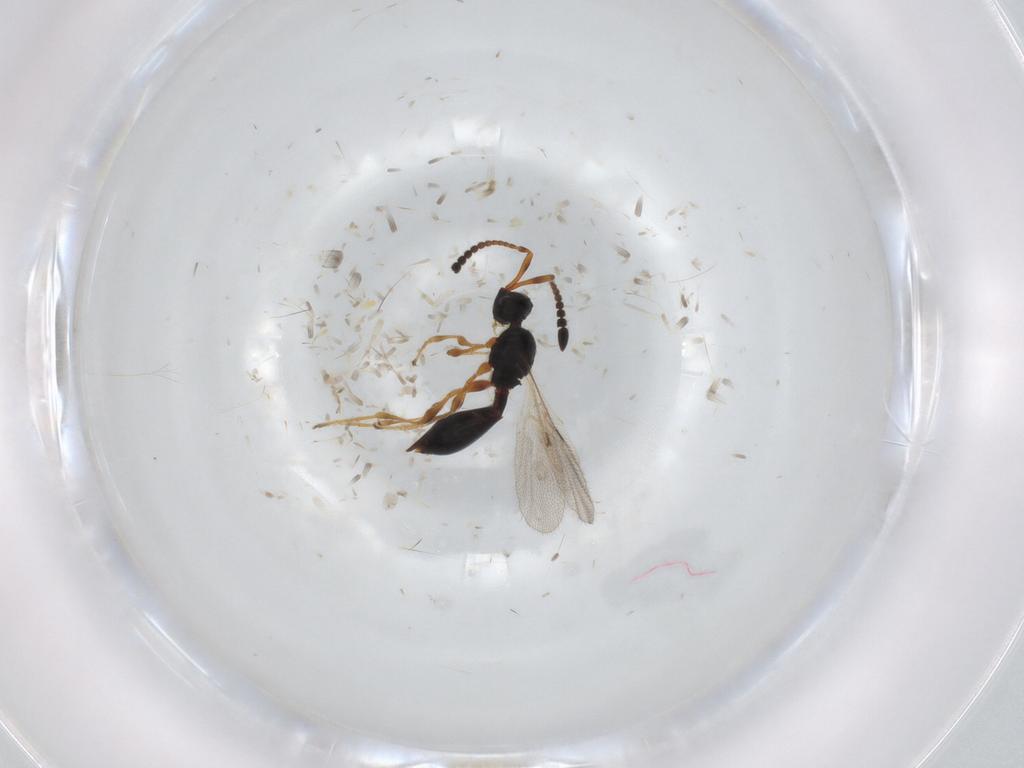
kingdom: Animalia
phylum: Arthropoda
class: Insecta
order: Hymenoptera
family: Diapriidae
